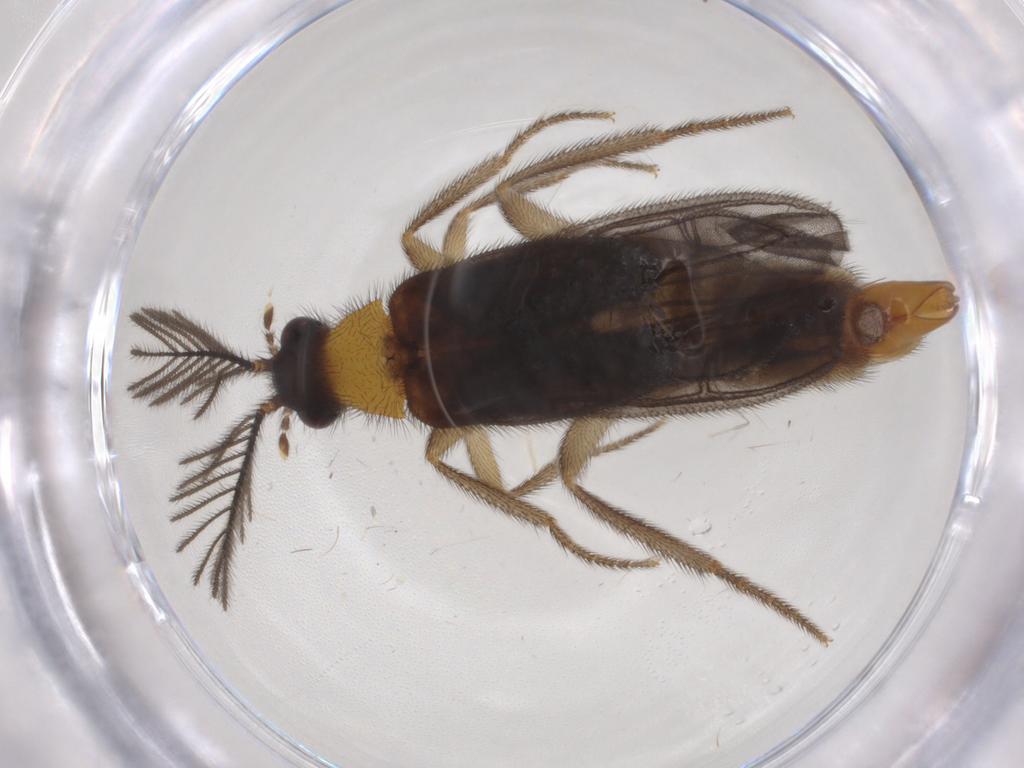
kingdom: Animalia
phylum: Arthropoda
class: Insecta
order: Coleoptera
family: Phengodidae
